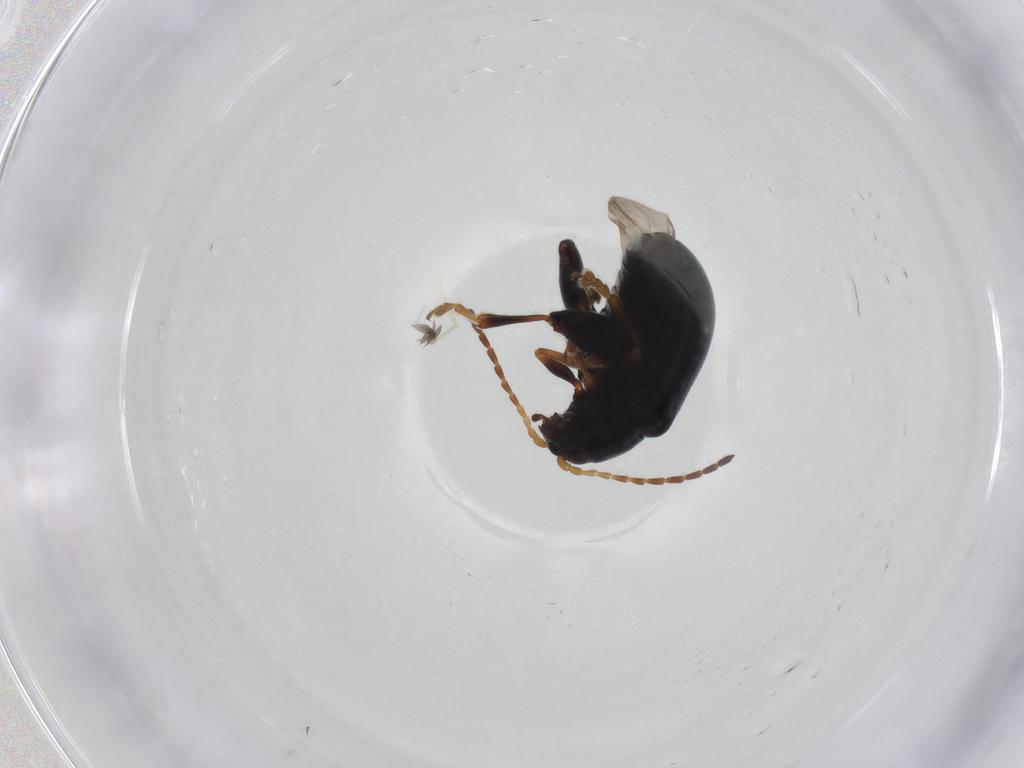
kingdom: Animalia
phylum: Arthropoda
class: Insecta
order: Coleoptera
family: Chrysomelidae
